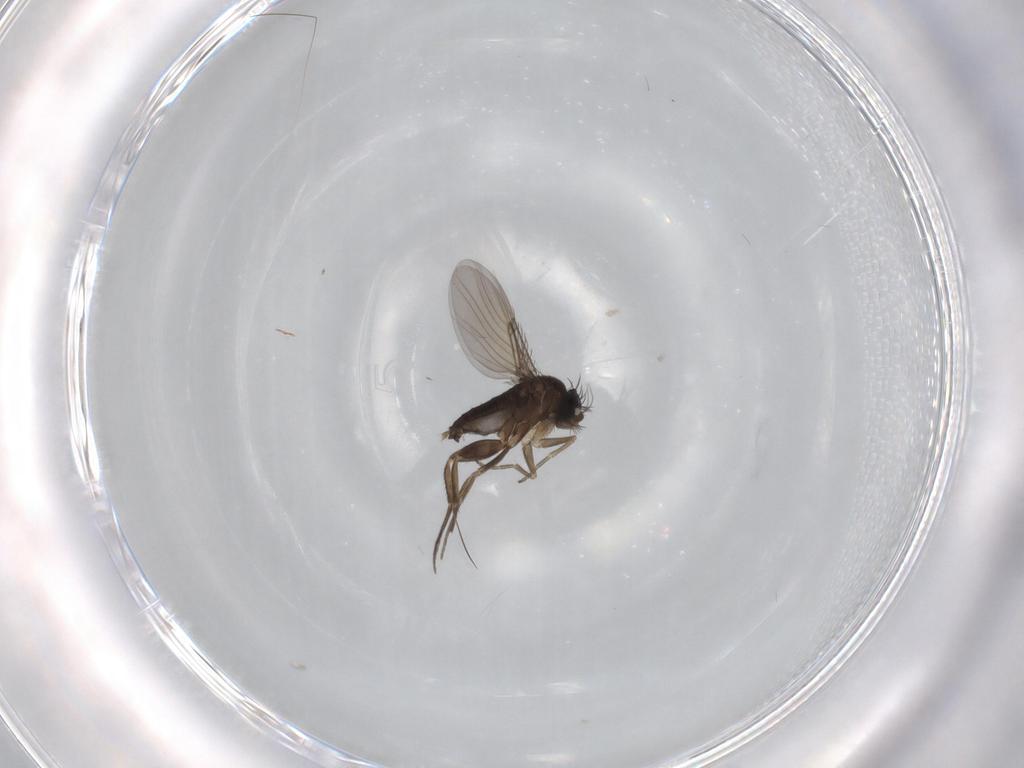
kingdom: Animalia
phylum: Arthropoda
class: Insecta
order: Diptera
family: Phoridae
